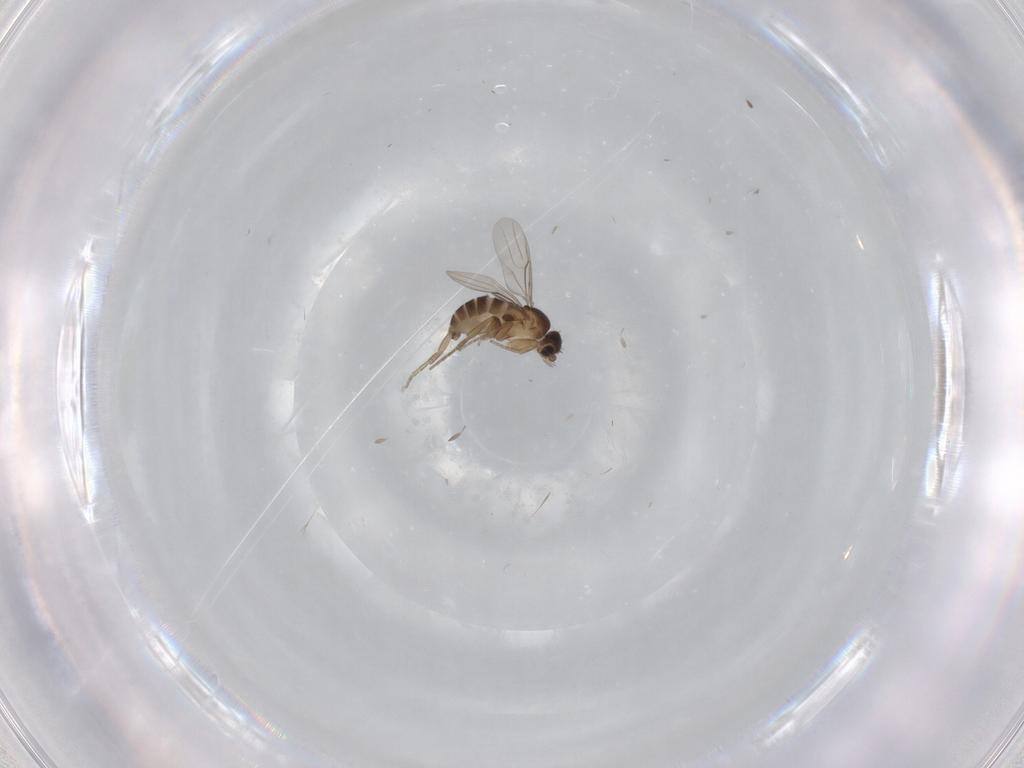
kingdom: Animalia
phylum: Arthropoda
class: Insecta
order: Diptera
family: Phoridae
